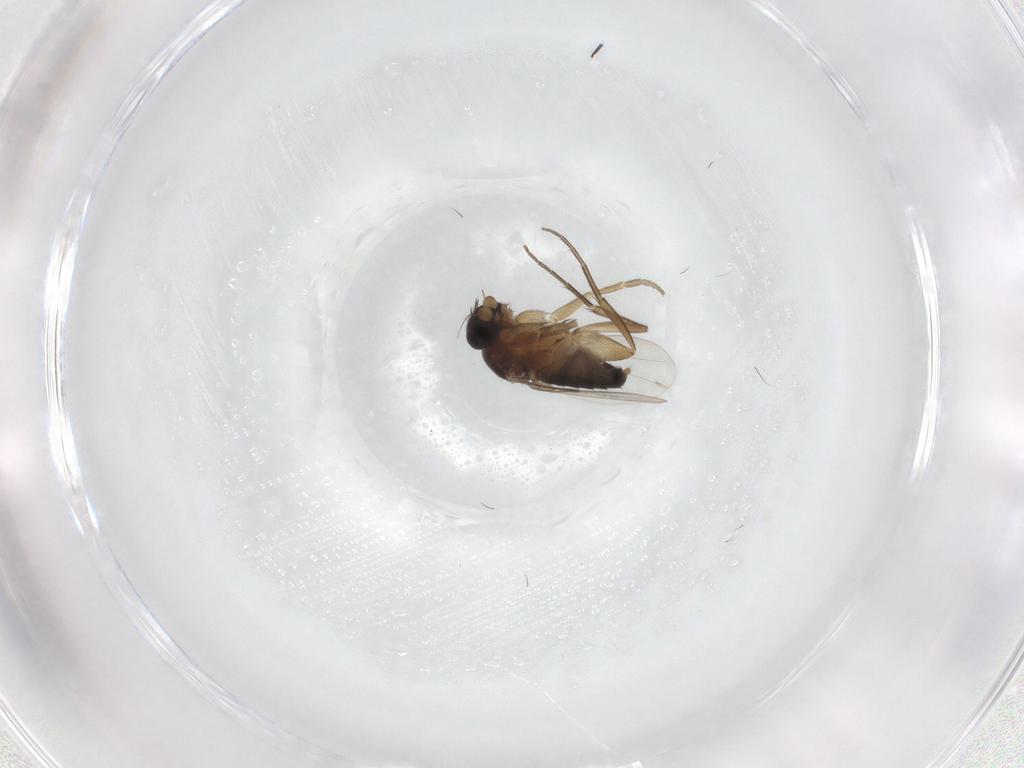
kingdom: Animalia
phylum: Arthropoda
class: Insecta
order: Diptera
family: Phoridae
